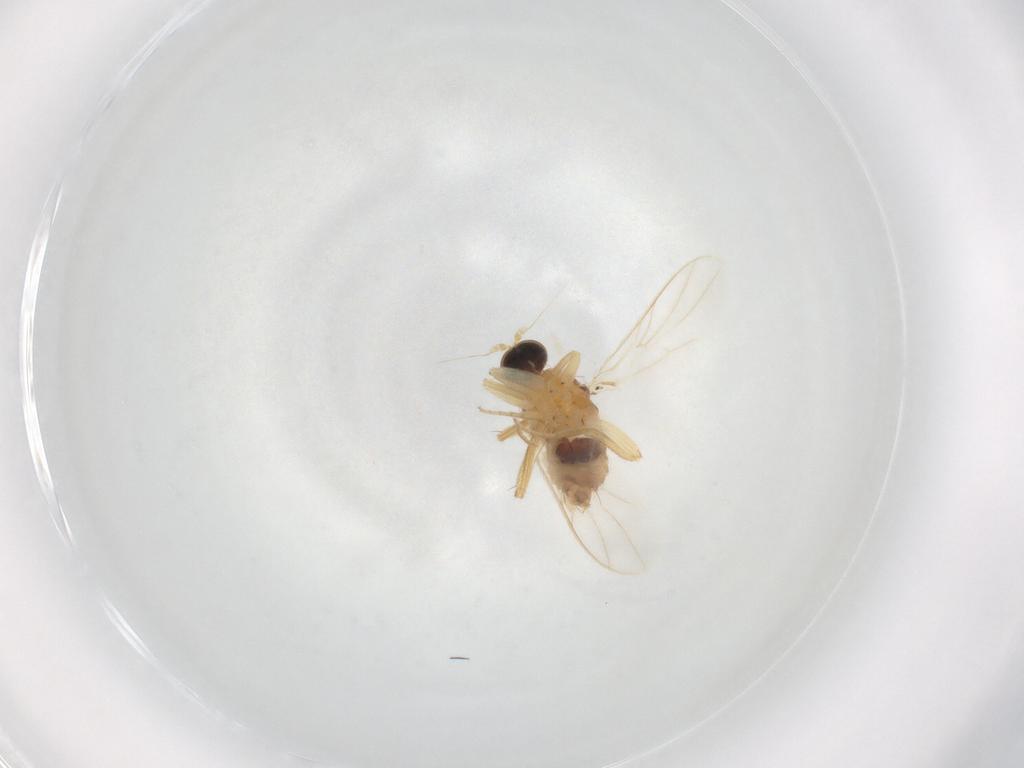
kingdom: Animalia
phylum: Arthropoda
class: Insecta
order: Diptera
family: Hybotidae
